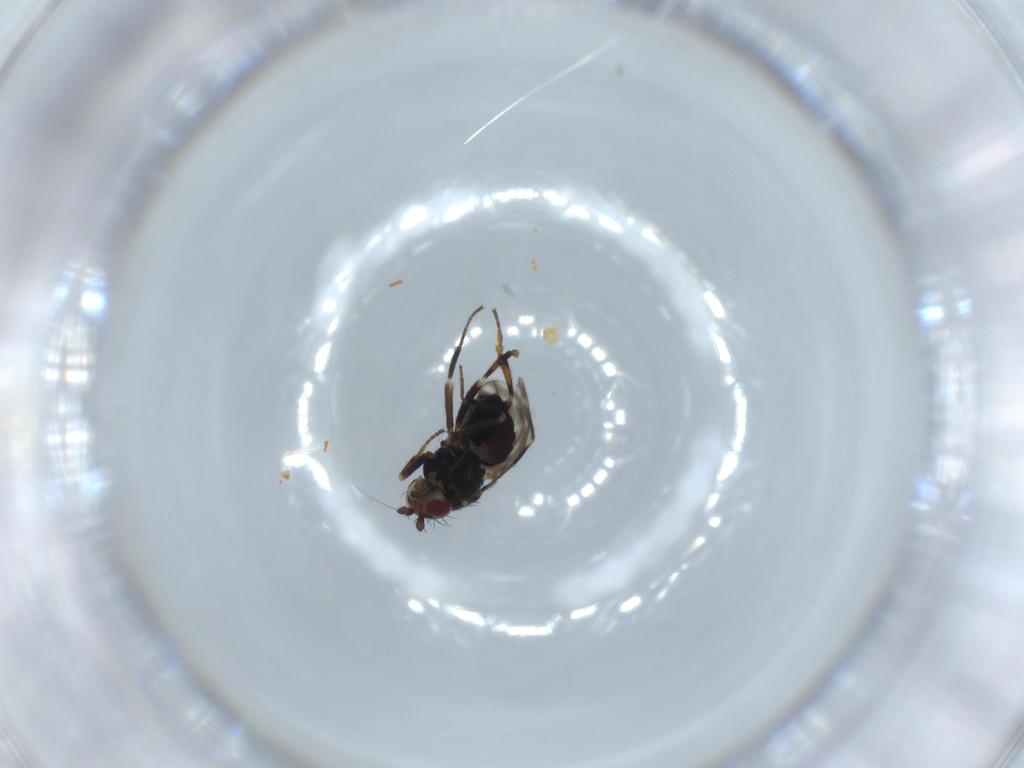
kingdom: Animalia
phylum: Arthropoda
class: Insecta
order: Diptera
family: Sphaeroceridae
